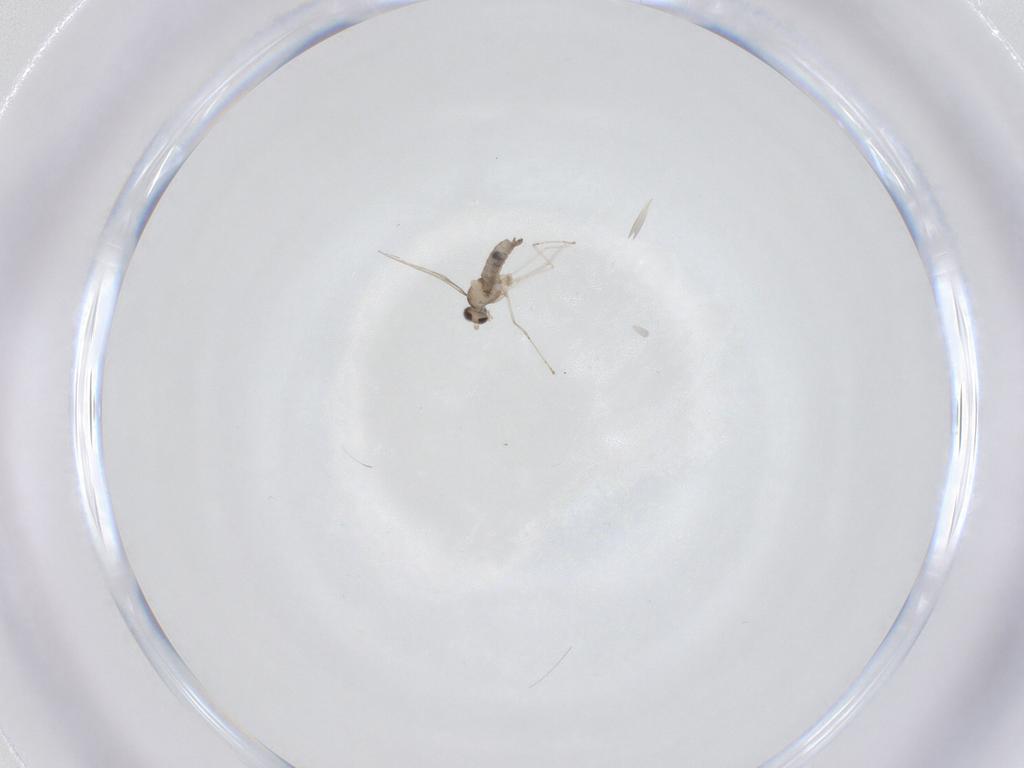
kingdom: Animalia
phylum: Arthropoda
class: Insecta
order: Diptera
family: Cecidomyiidae
